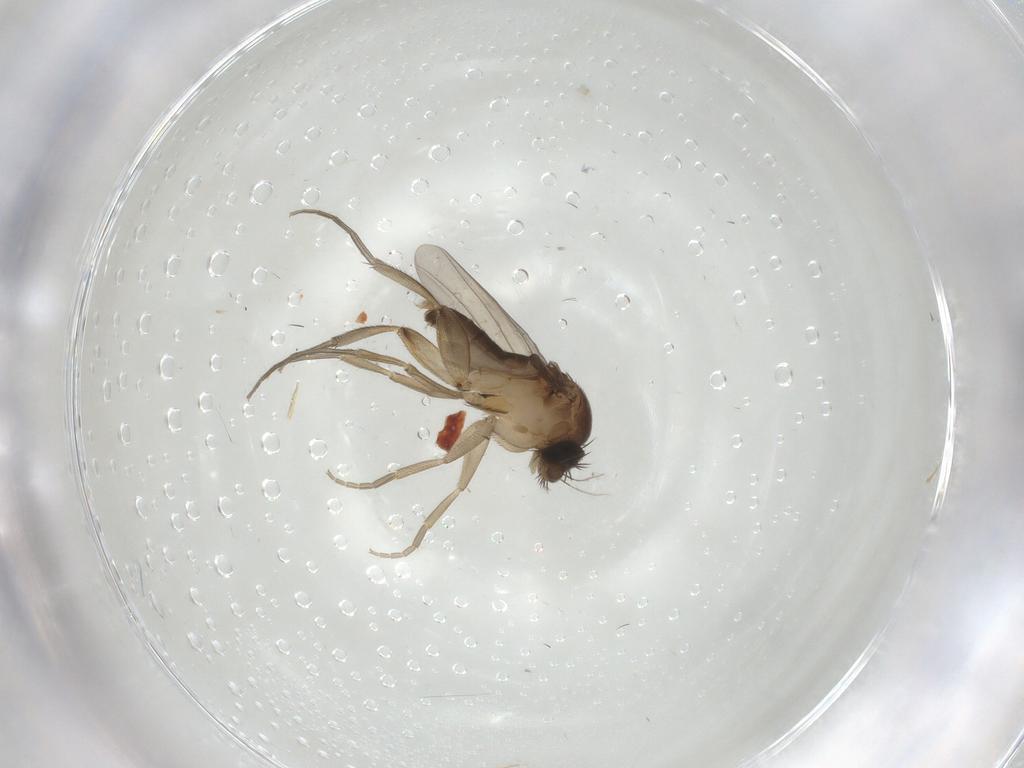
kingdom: Animalia
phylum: Arthropoda
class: Insecta
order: Diptera
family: Phoridae
